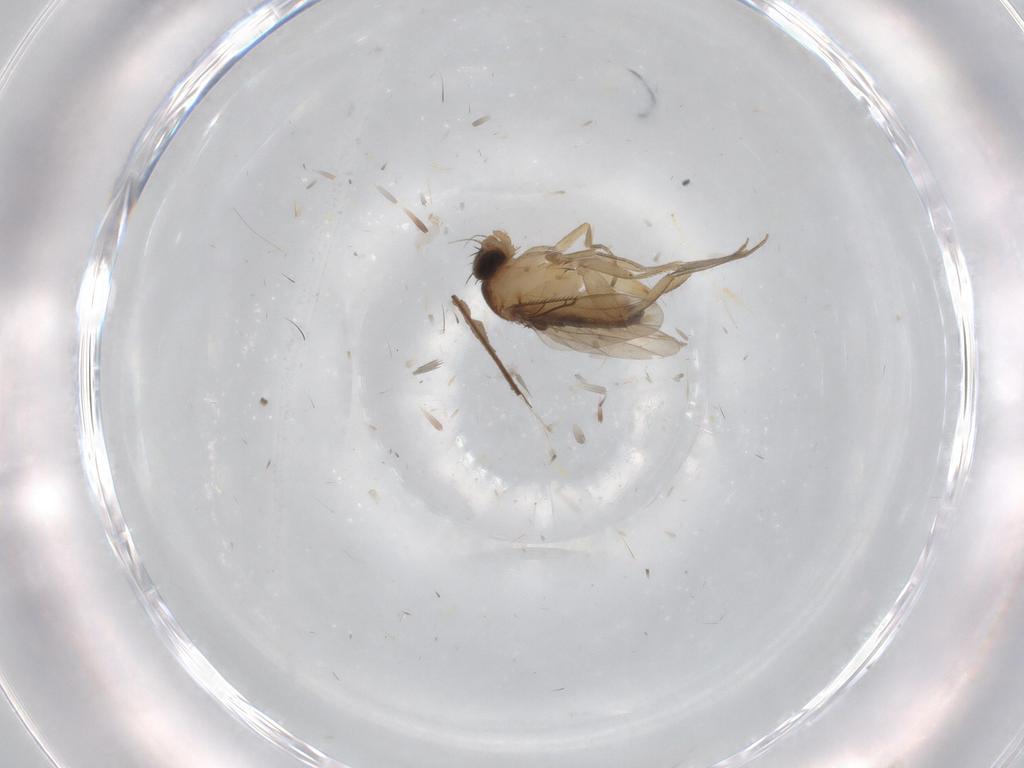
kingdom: Animalia
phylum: Arthropoda
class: Insecta
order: Diptera
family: Phoridae
